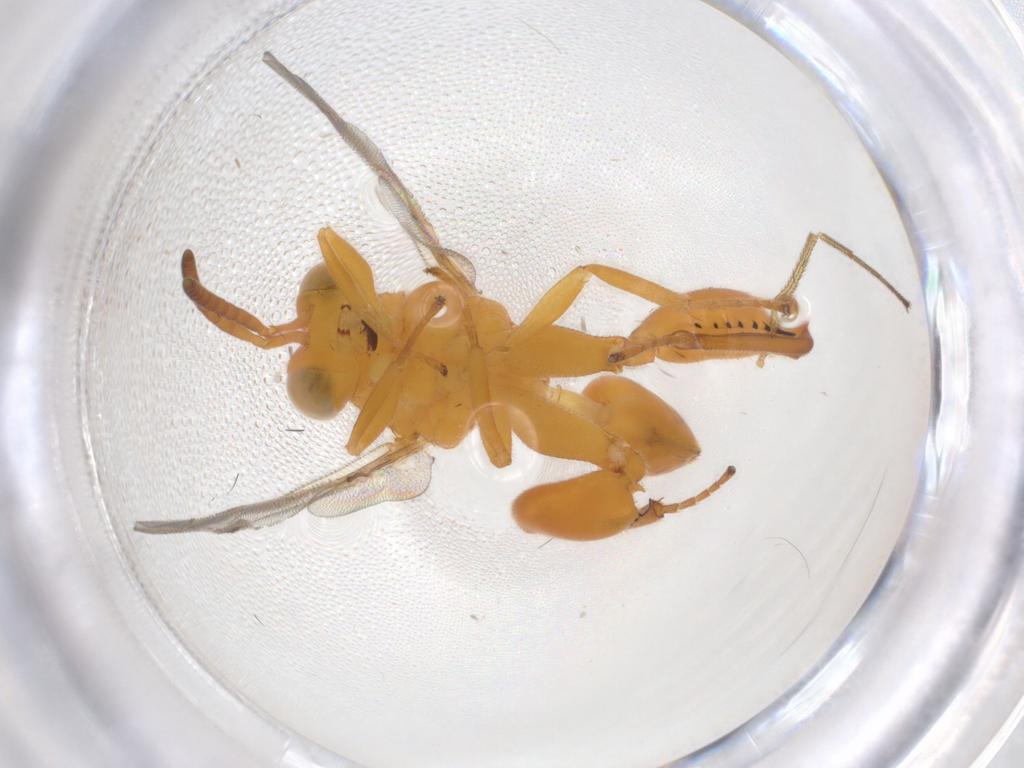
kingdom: Animalia
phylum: Arthropoda
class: Insecta
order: Hymenoptera
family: Chalcididae
